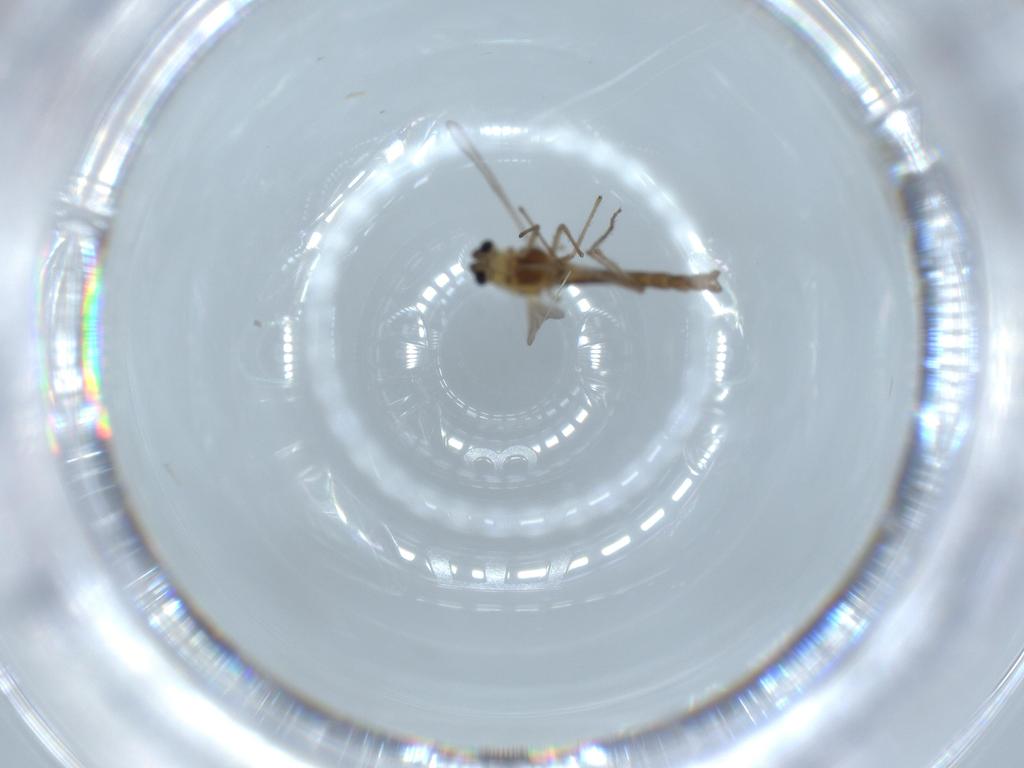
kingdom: Animalia
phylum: Arthropoda
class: Insecta
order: Diptera
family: Chironomidae
